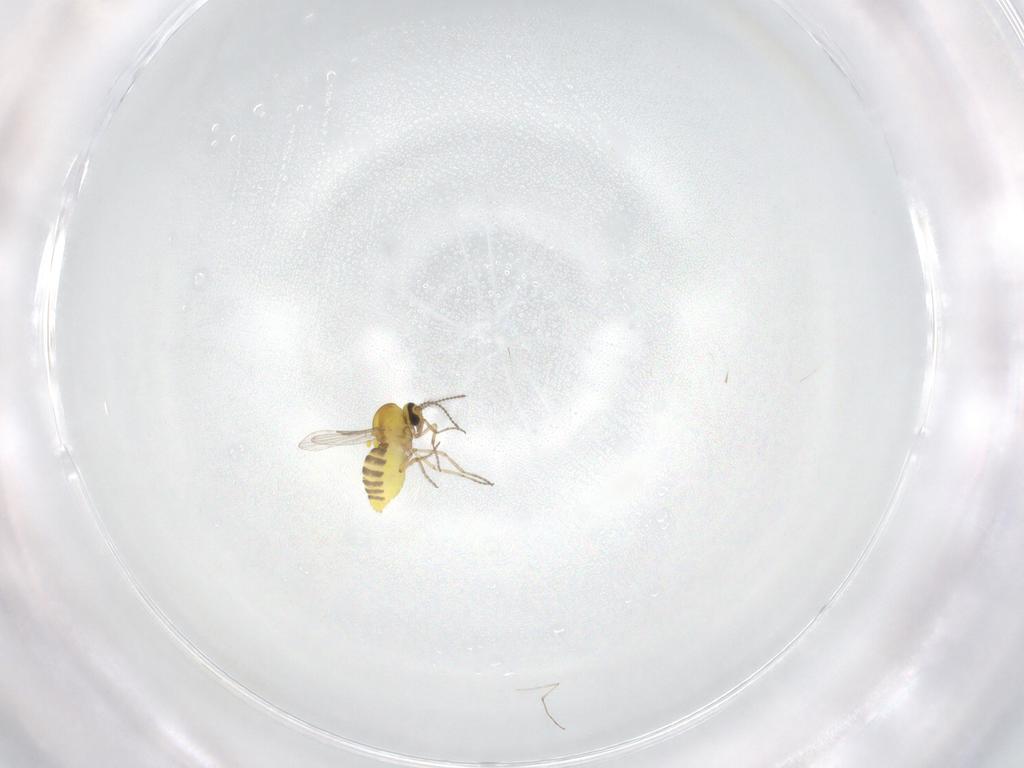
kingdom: Animalia
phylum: Arthropoda
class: Insecta
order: Diptera
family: Ceratopogonidae
